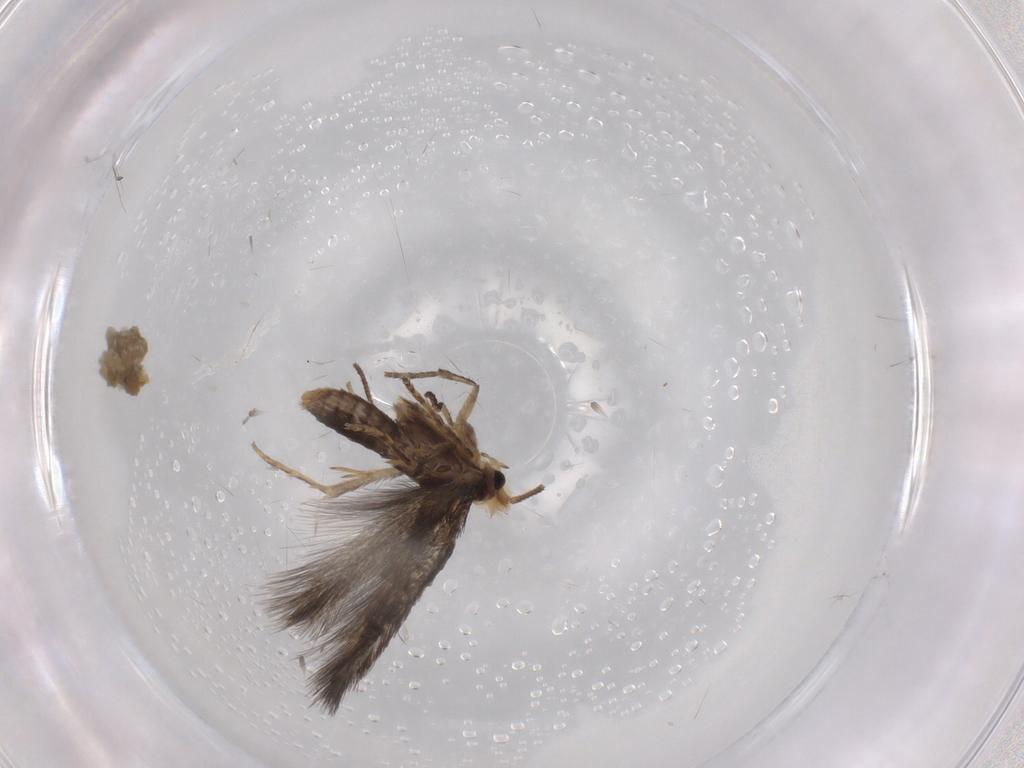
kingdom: Animalia
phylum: Arthropoda
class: Insecta
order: Lepidoptera
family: Nepticulidae
